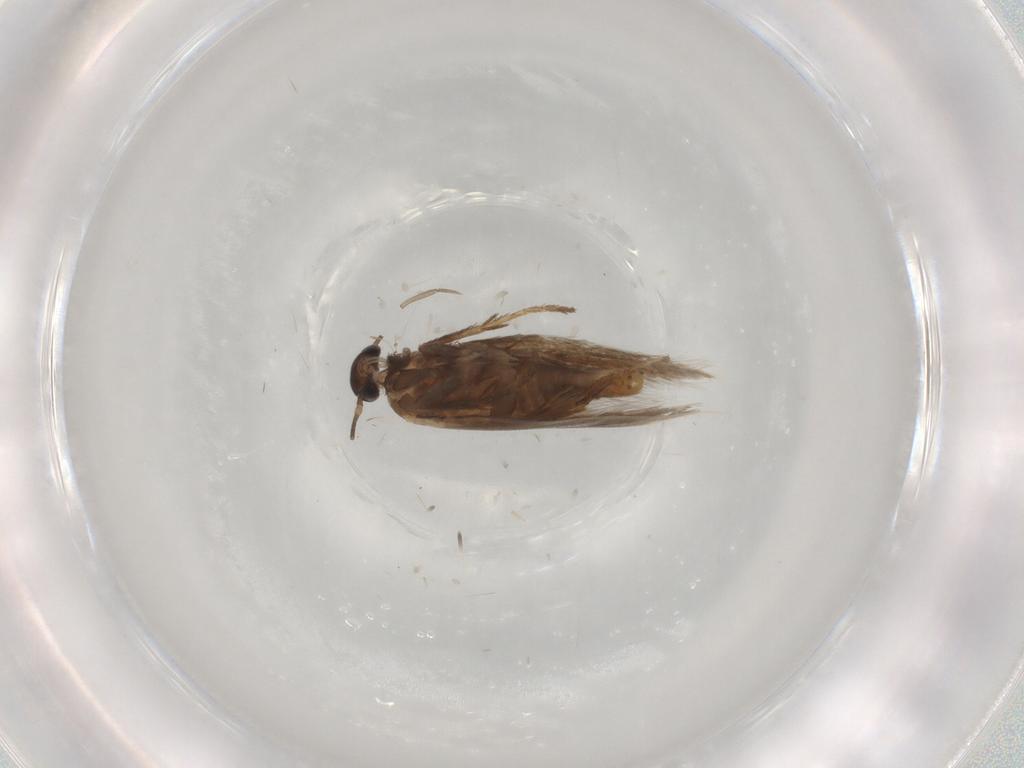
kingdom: Animalia
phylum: Arthropoda
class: Insecta
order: Lepidoptera
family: Heliozelidae
